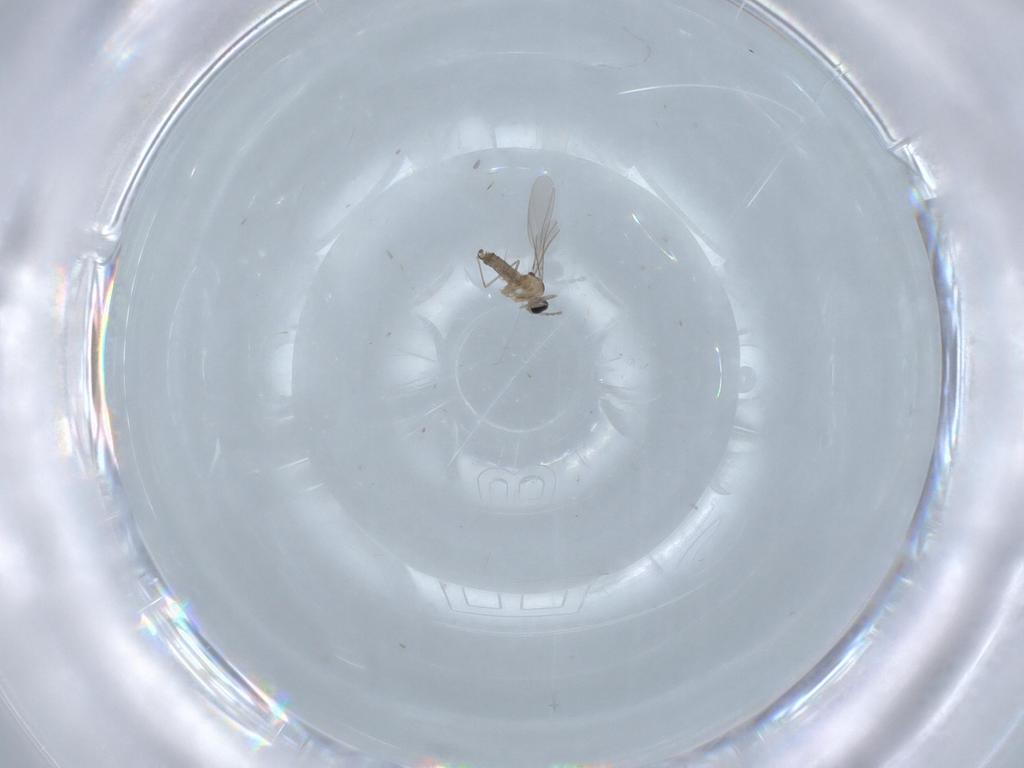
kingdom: Animalia
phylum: Arthropoda
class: Insecta
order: Diptera
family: Cecidomyiidae
